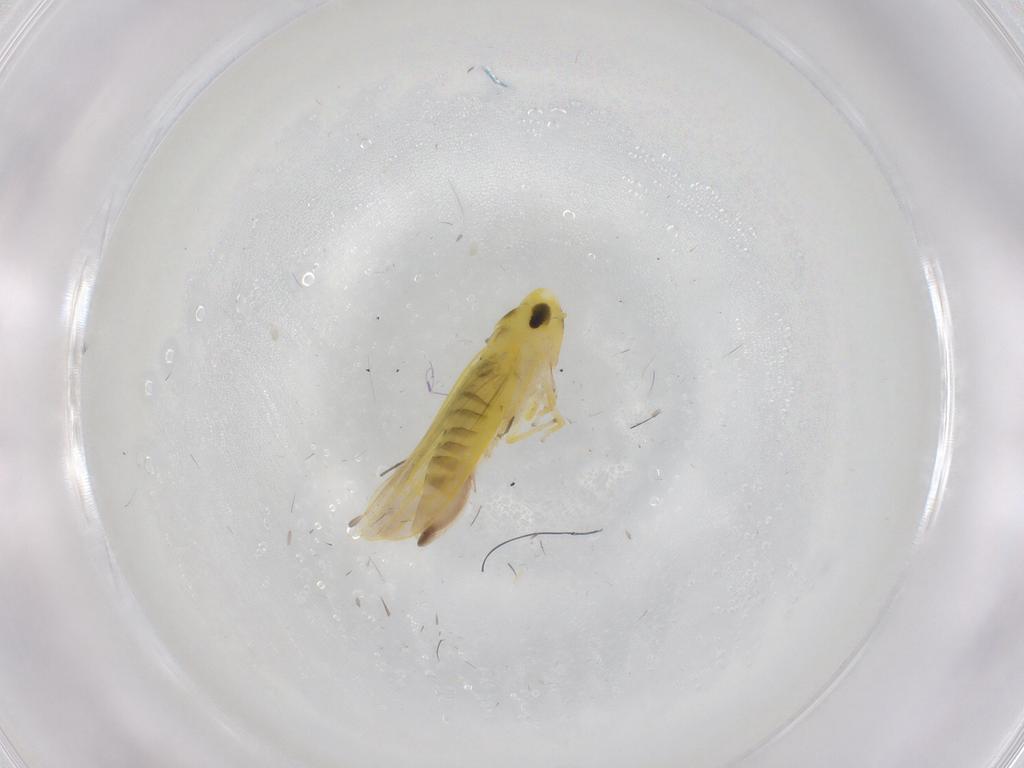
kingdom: Animalia
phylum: Arthropoda
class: Insecta
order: Hemiptera
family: Cicadellidae
